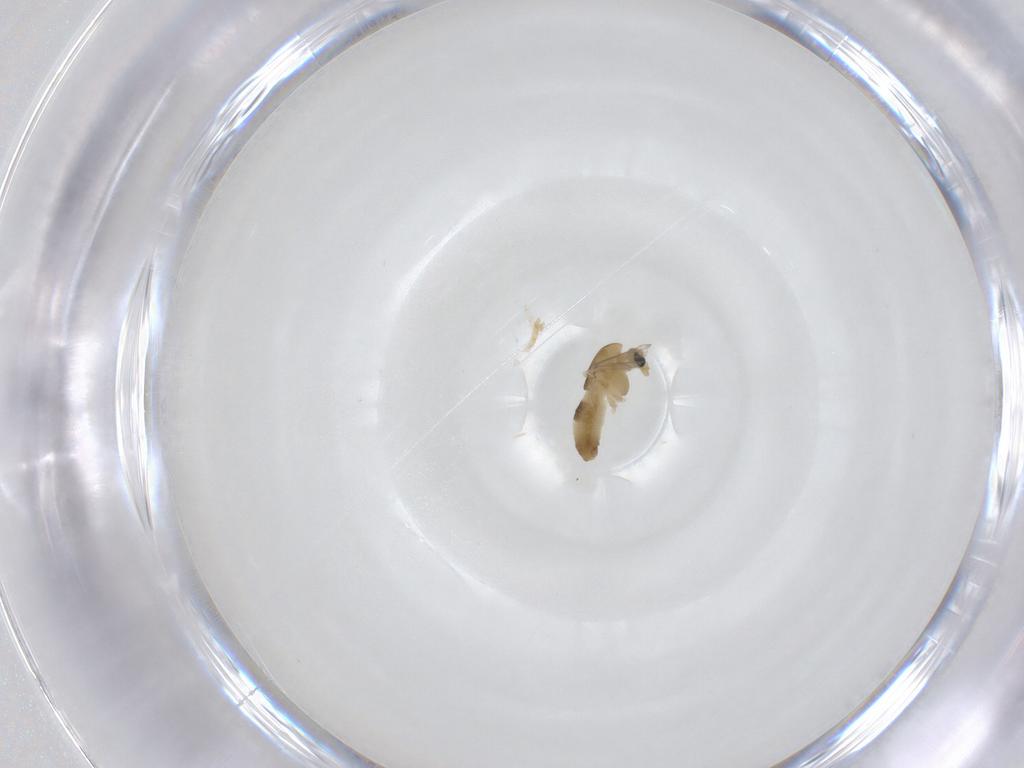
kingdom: Animalia
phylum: Arthropoda
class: Insecta
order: Diptera
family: Chironomidae
